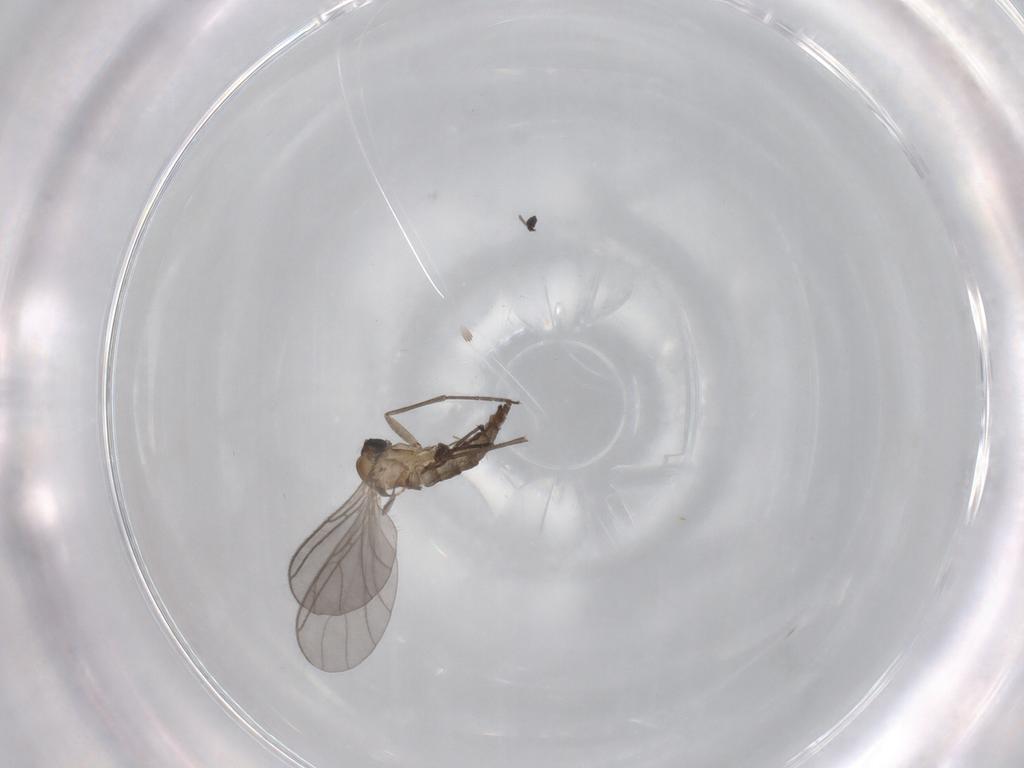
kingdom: Animalia
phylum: Arthropoda
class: Insecta
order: Diptera
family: Sciaridae
